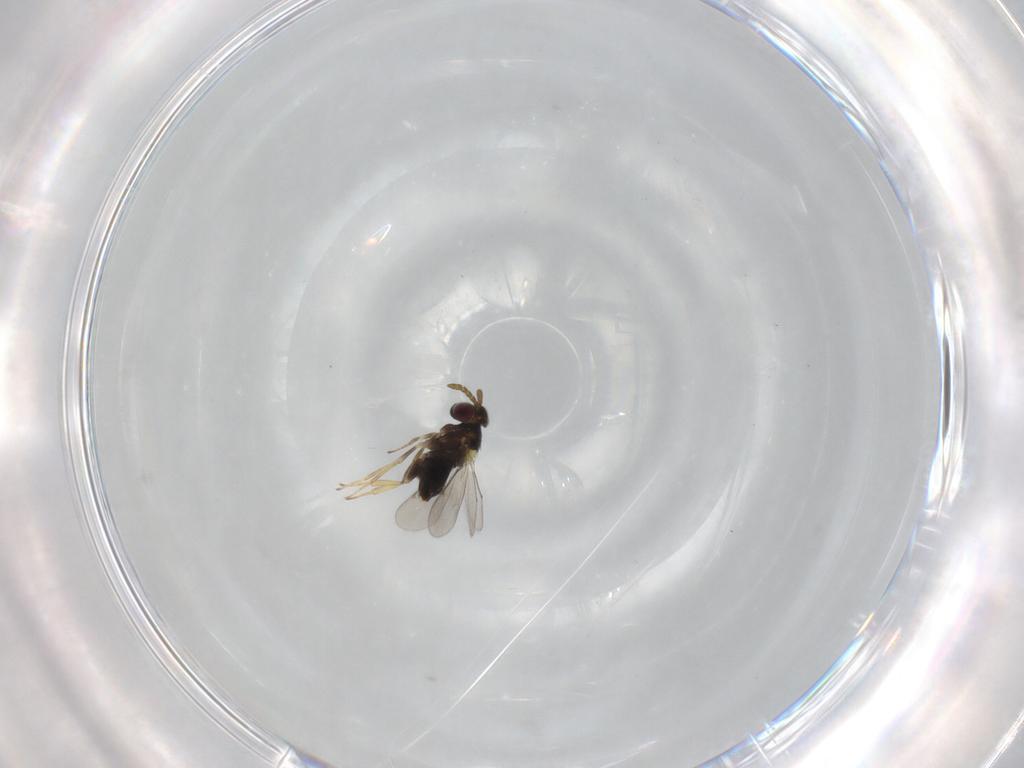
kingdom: Animalia
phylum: Arthropoda
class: Insecta
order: Hymenoptera
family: Aphelinidae
